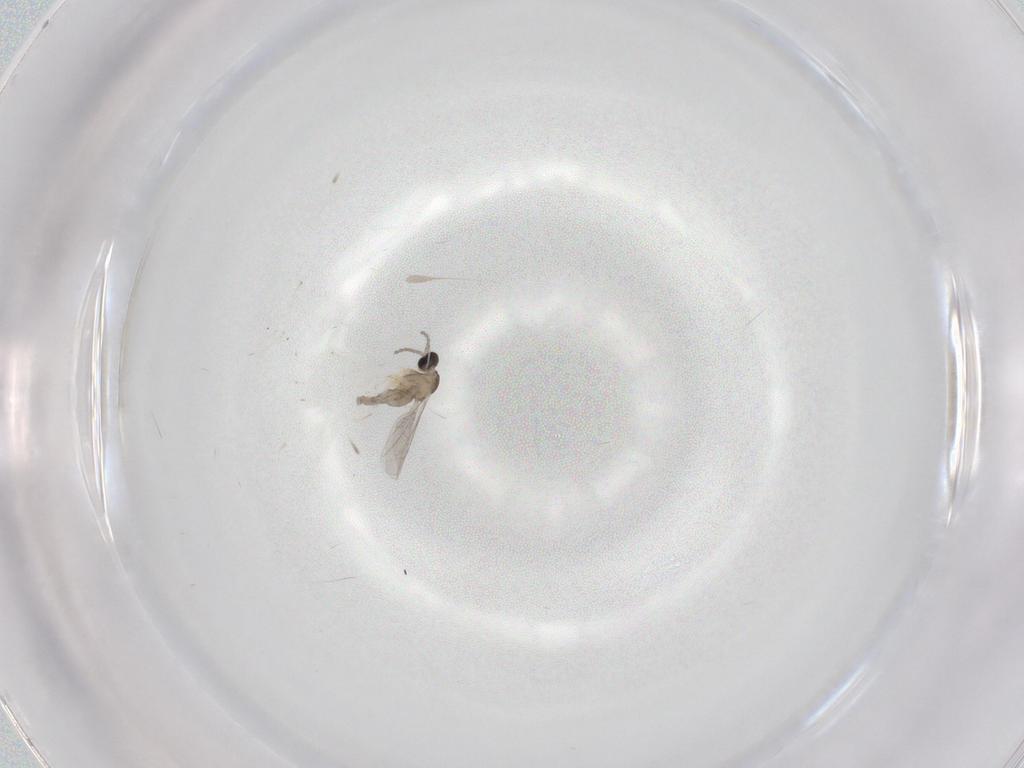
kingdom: Animalia
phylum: Arthropoda
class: Insecta
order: Diptera
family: Cecidomyiidae
